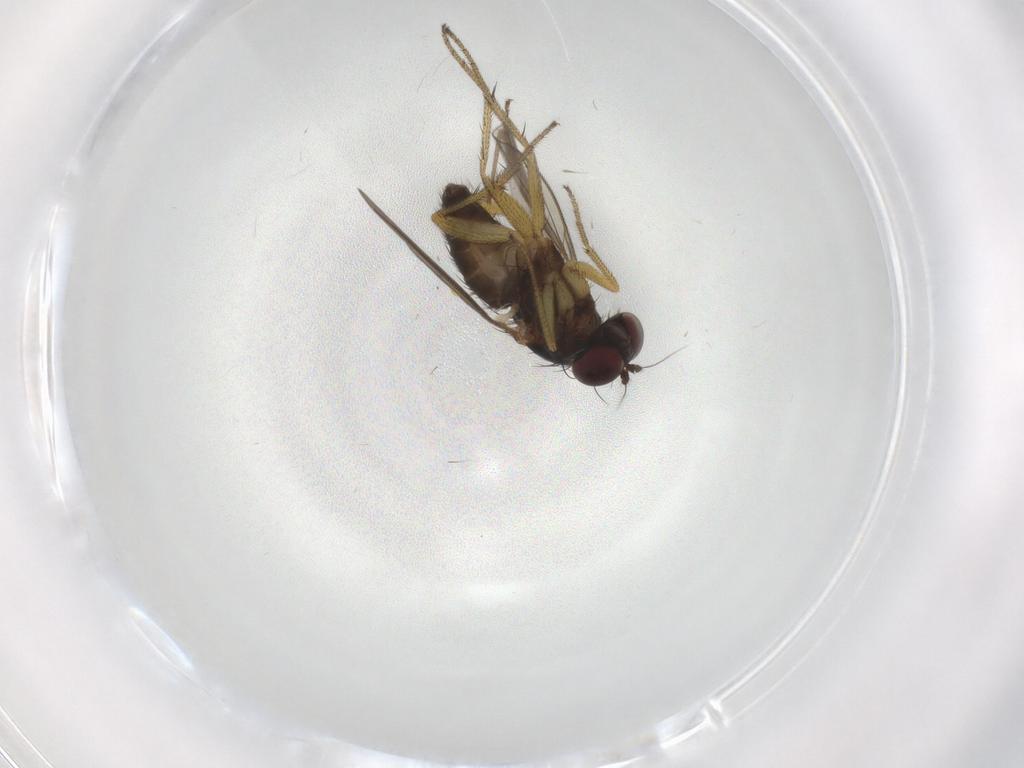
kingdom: Animalia
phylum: Arthropoda
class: Insecta
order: Diptera
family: Dolichopodidae
